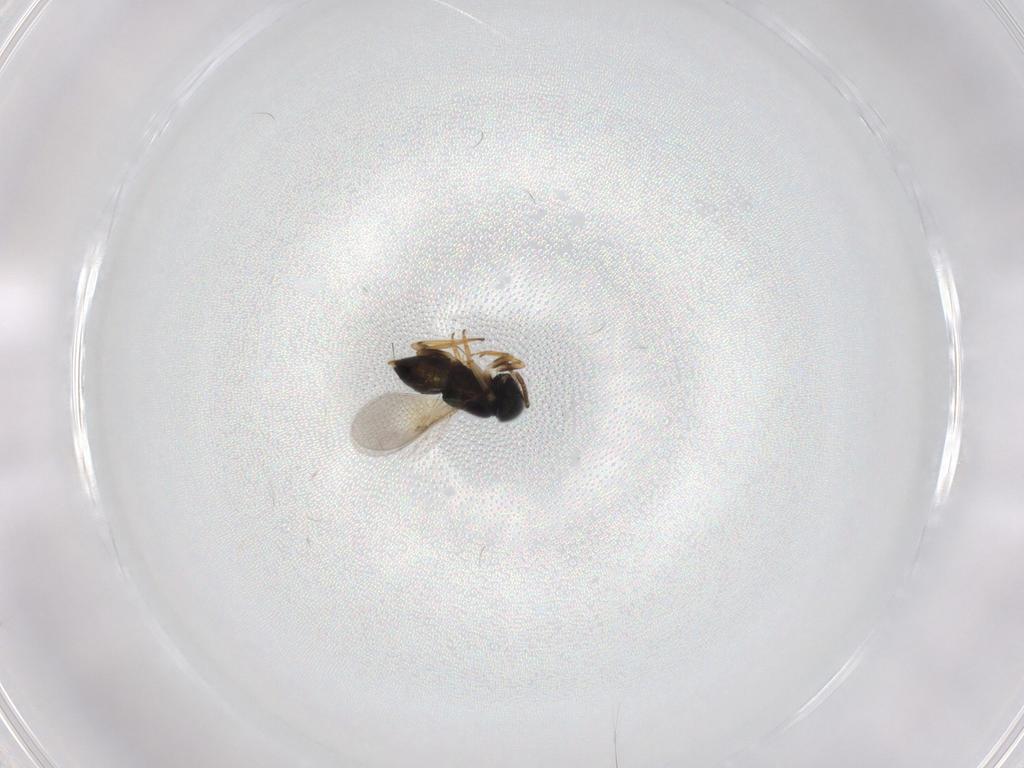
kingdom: Animalia
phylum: Arthropoda
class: Insecta
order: Hymenoptera
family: Encyrtidae
